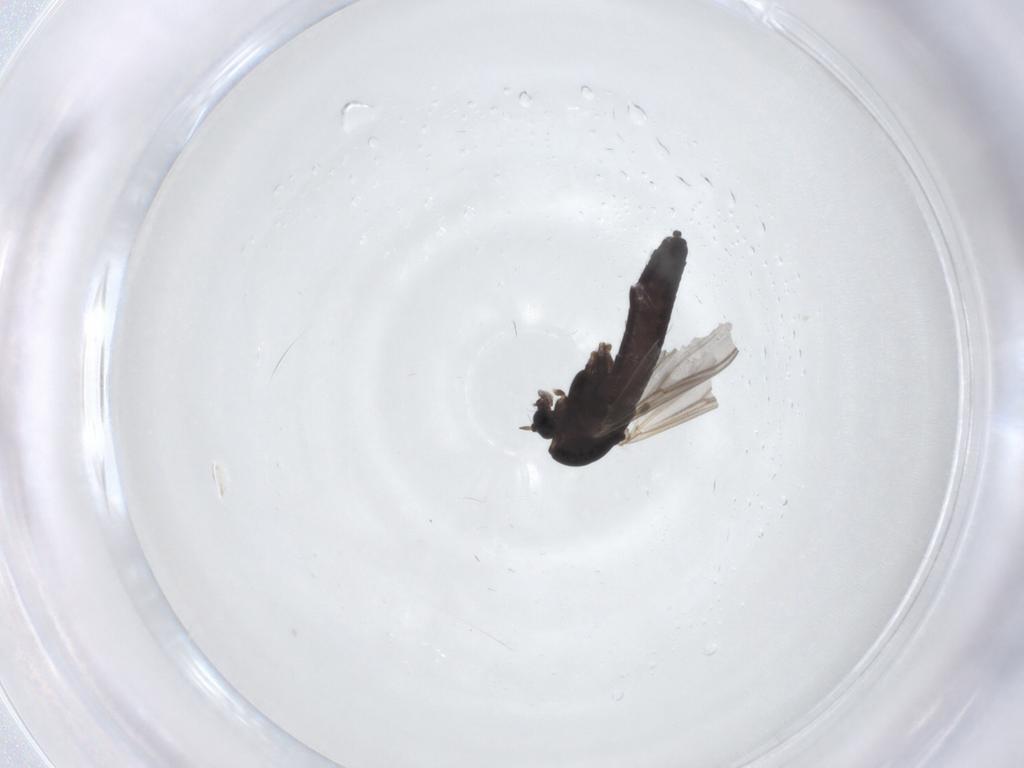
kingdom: Animalia
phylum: Arthropoda
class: Insecta
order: Diptera
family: Chironomidae
